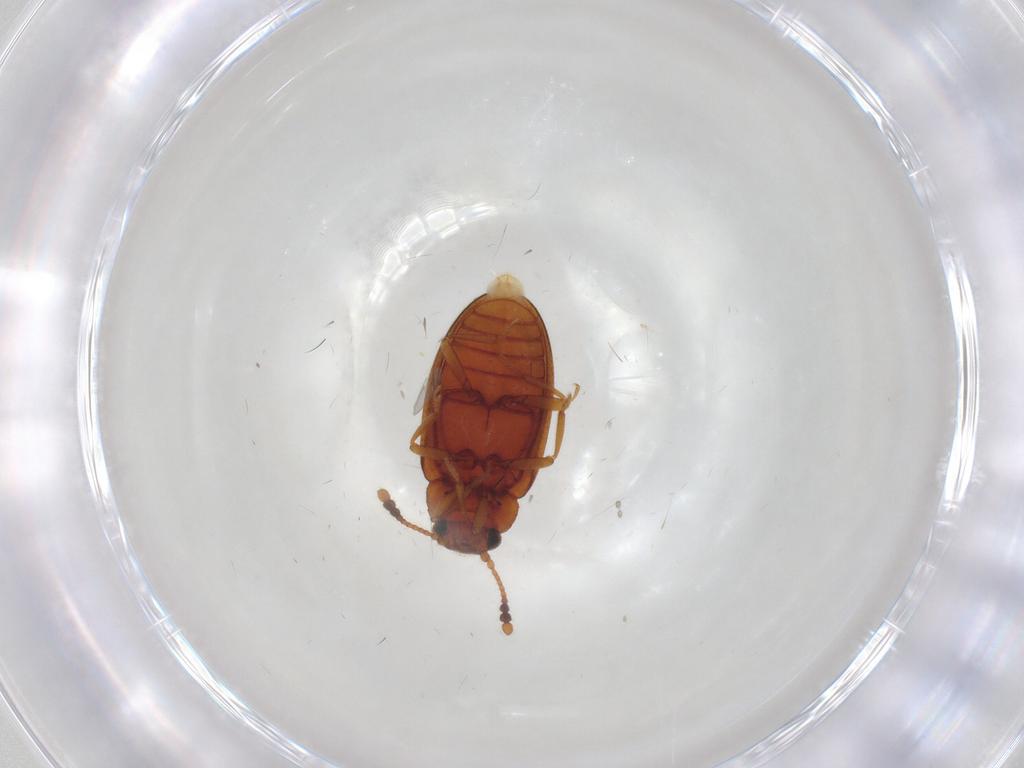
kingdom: Animalia
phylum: Arthropoda
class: Insecta
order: Coleoptera
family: Erotylidae
